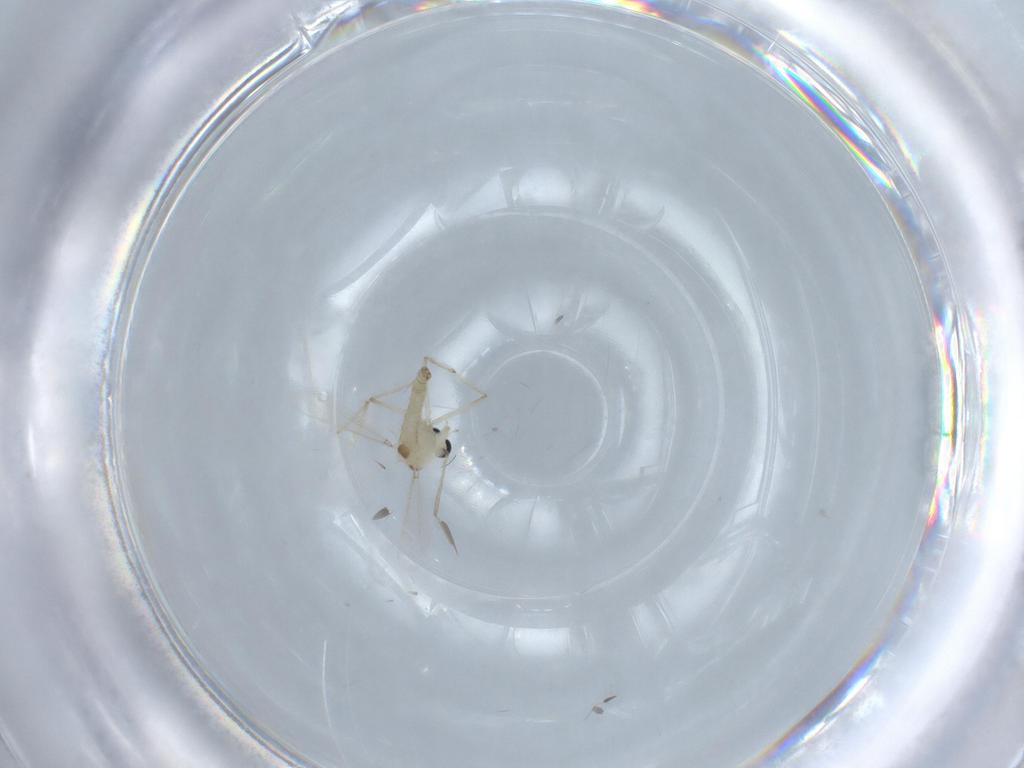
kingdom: Animalia
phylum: Arthropoda
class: Insecta
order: Diptera
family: Chironomidae
